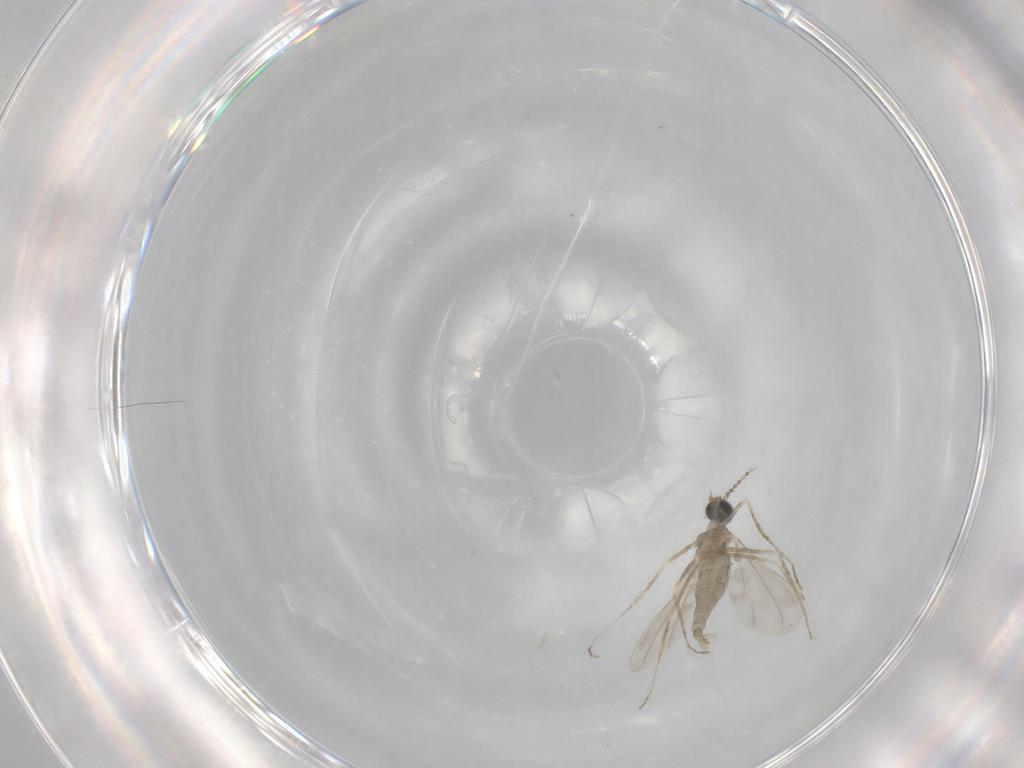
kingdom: Animalia
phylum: Arthropoda
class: Insecta
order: Diptera
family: Cecidomyiidae
